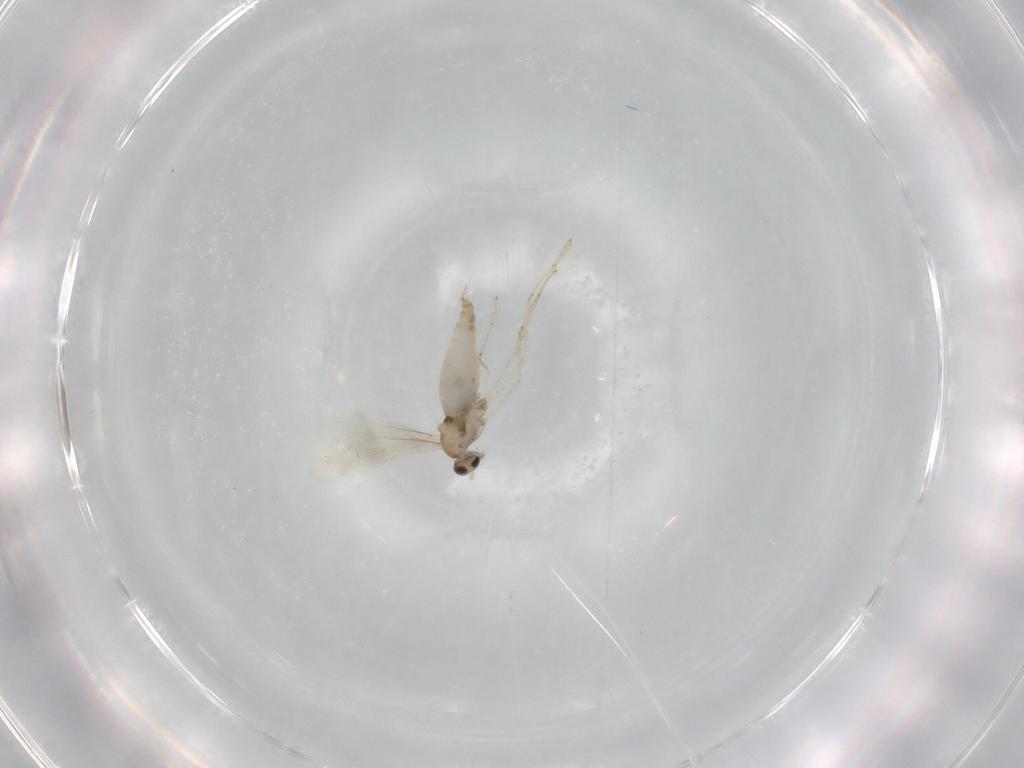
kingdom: Animalia
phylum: Arthropoda
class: Insecta
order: Diptera
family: Cecidomyiidae
